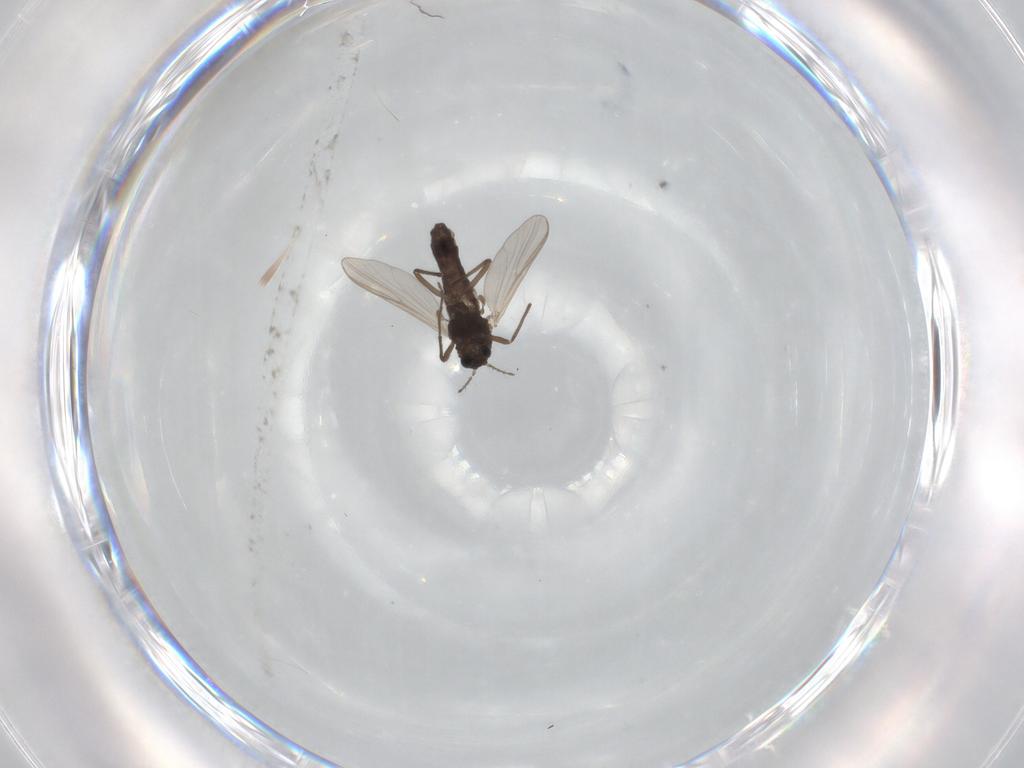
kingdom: Animalia
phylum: Arthropoda
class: Insecta
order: Diptera
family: Chironomidae
